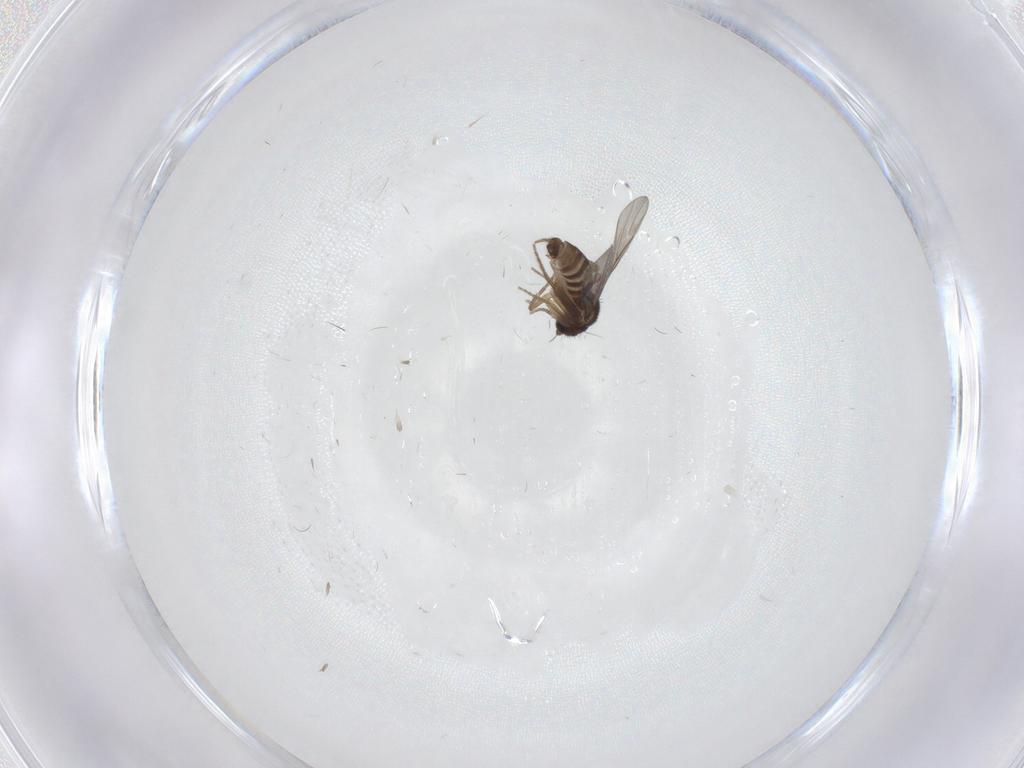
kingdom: Animalia
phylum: Arthropoda
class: Insecta
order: Diptera
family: Psychodidae
